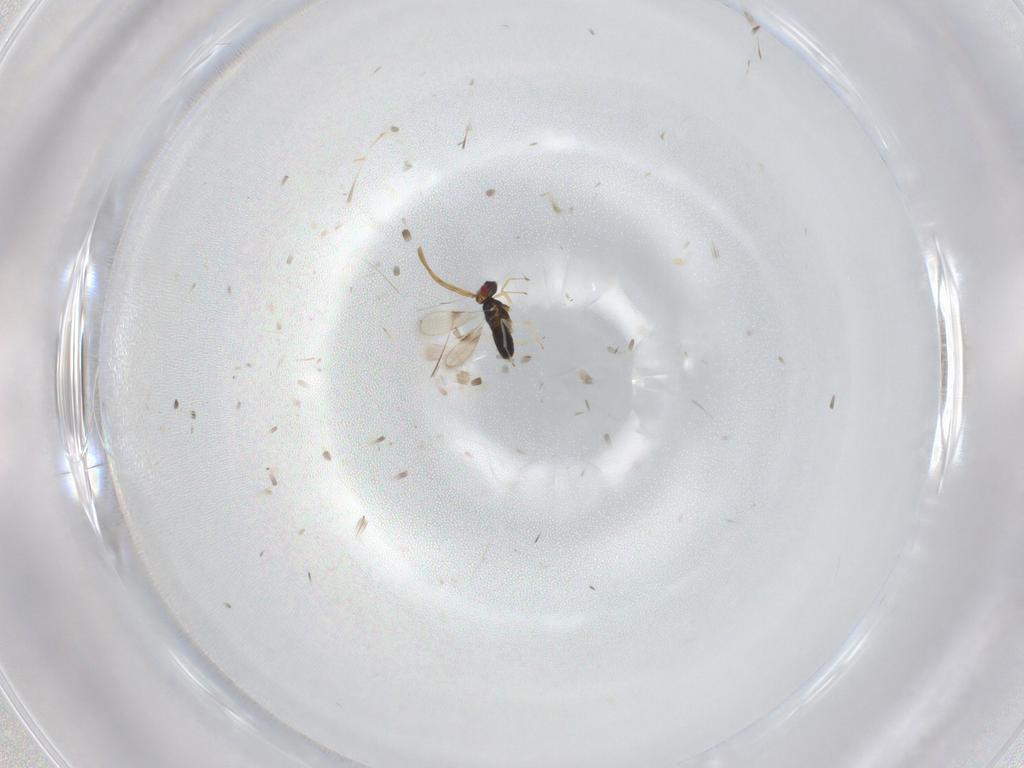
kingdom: Animalia
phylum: Arthropoda
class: Insecta
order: Hymenoptera
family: Trichogrammatidae
